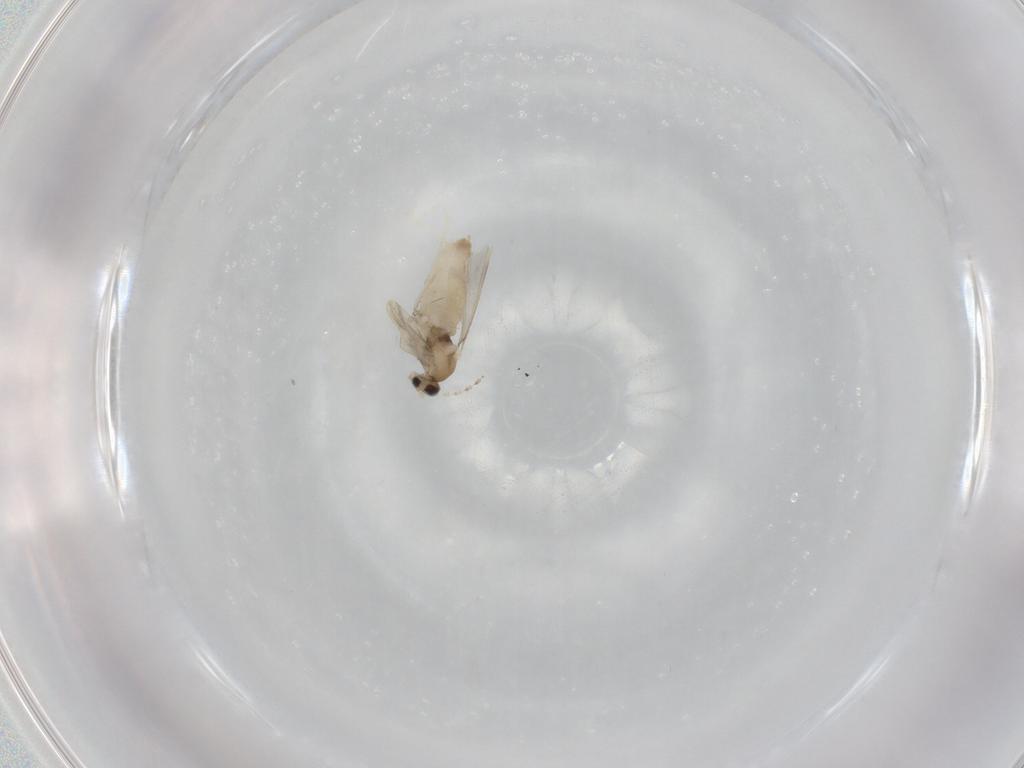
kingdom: Animalia
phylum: Arthropoda
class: Insecta
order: Diptera
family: Cecidomyiidae
